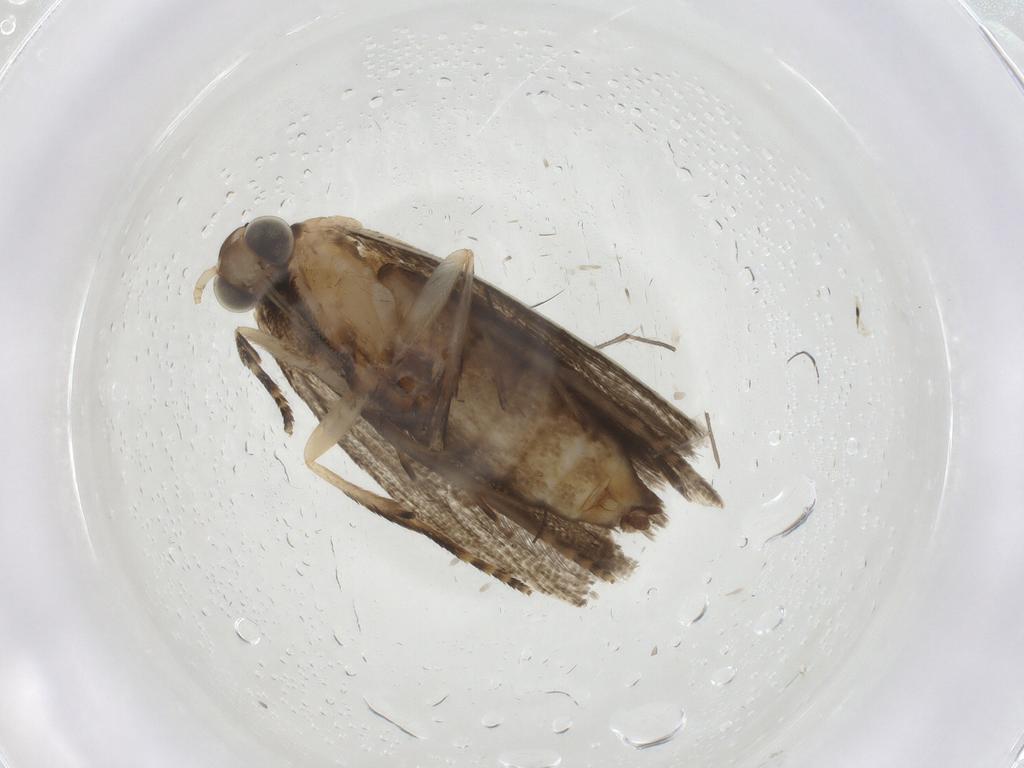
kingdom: Animalia
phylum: Arthropoda
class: Insecta
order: Lepidoptera
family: Tortricidae
